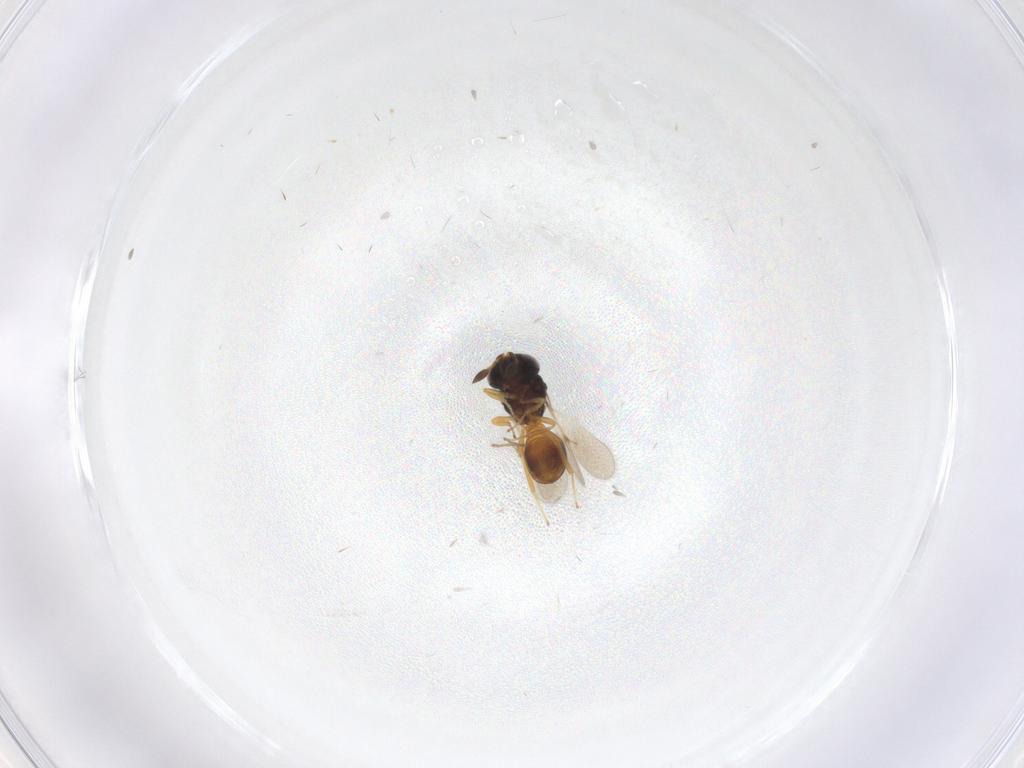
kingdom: Animalia
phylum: Arthropoda
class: Insecta
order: Hymenoptera
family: Scelionidae
